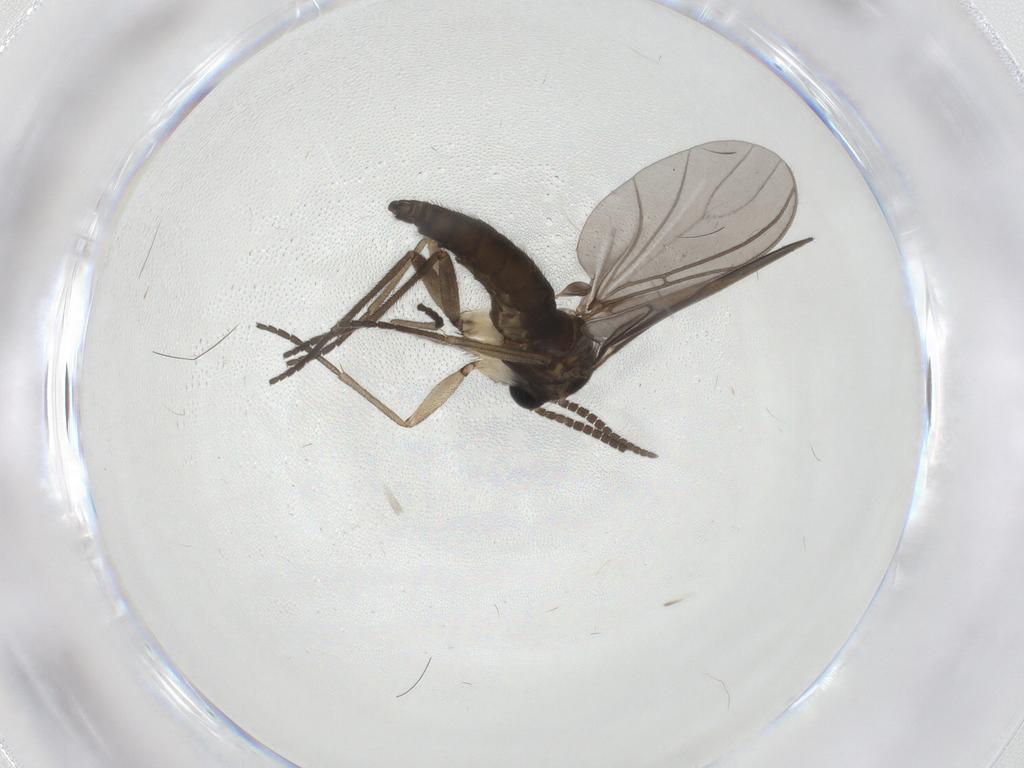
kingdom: Animalia
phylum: Arthropoda
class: Insecta
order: Diptera
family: Sciaridae
